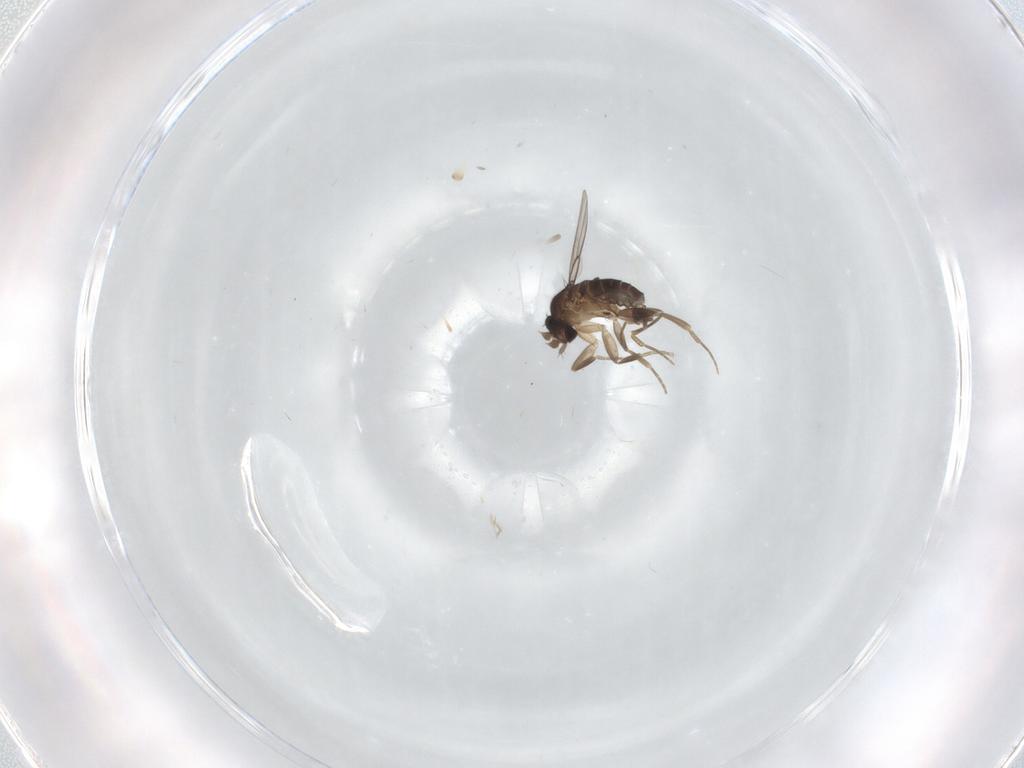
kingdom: Animalia
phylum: Arthropoda
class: Insecta
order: Diptera
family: Phoridae
